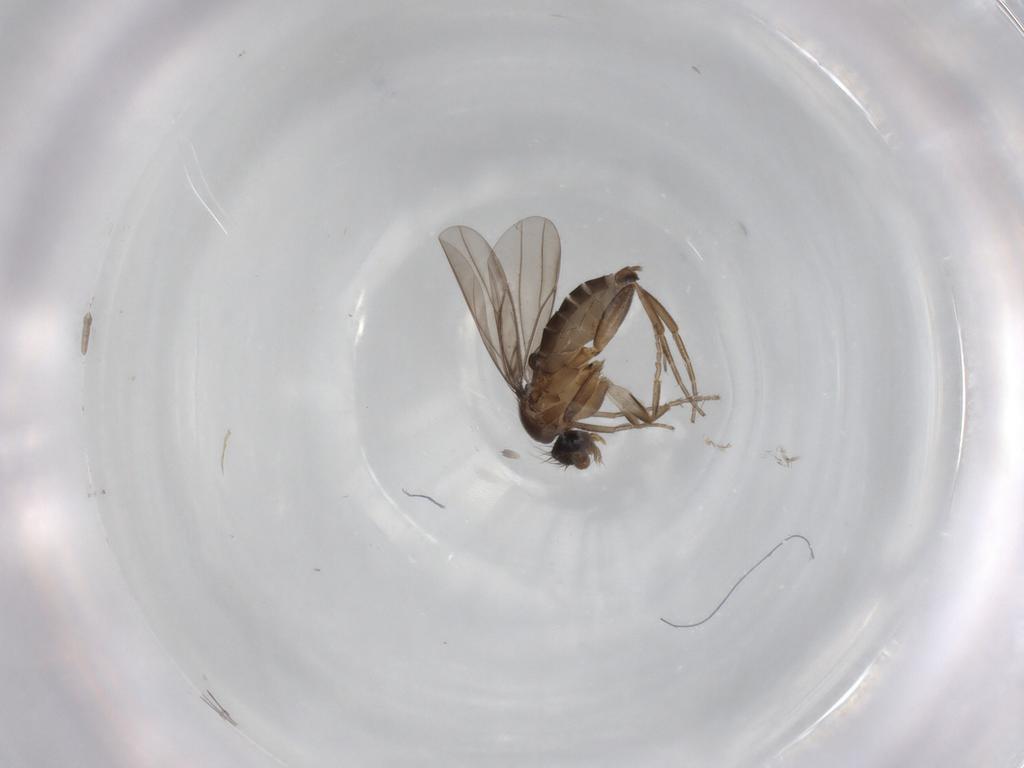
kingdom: Animalia
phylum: Arthropoda
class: Insecta
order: Diptera
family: Cecidomyiidae
